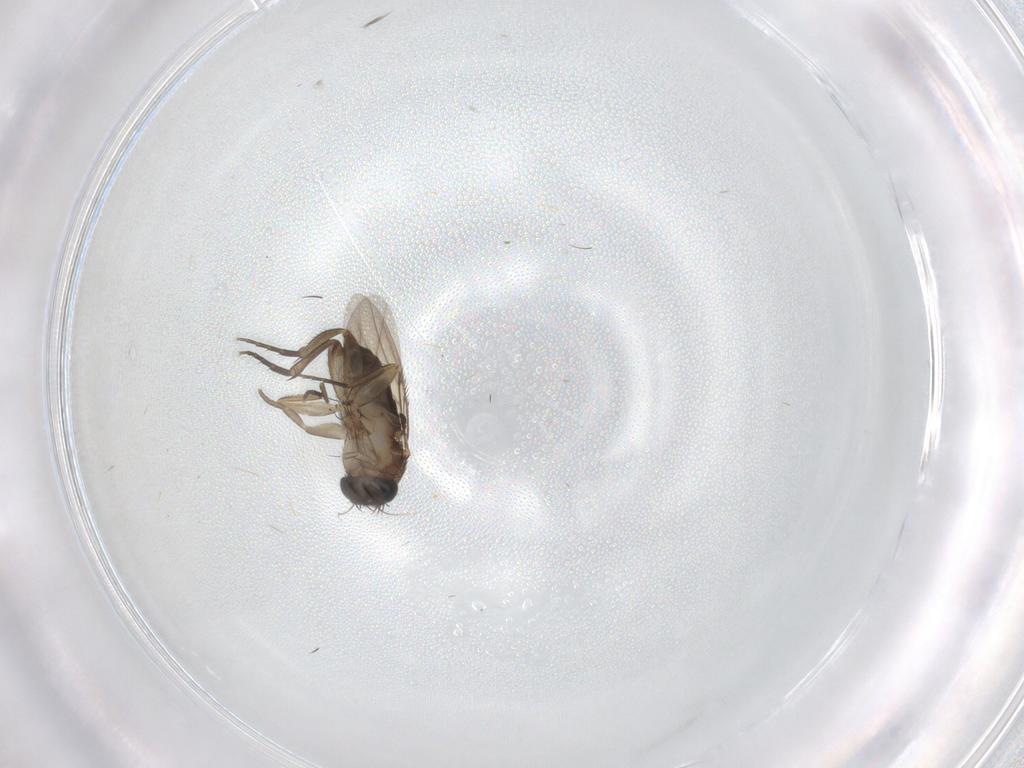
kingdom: Animalia
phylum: Arthropoda
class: Insecta
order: Diptera
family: Phoridae
